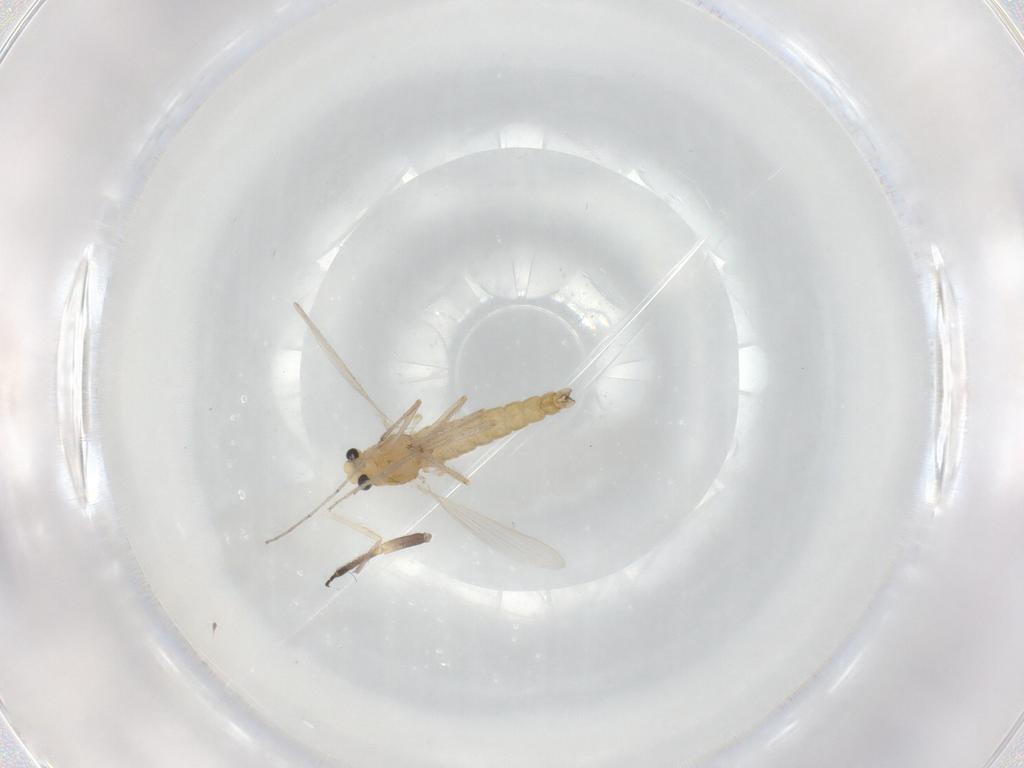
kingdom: Animalia
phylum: Arthropoda
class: Insecta
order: Diptera
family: Chironomidae
